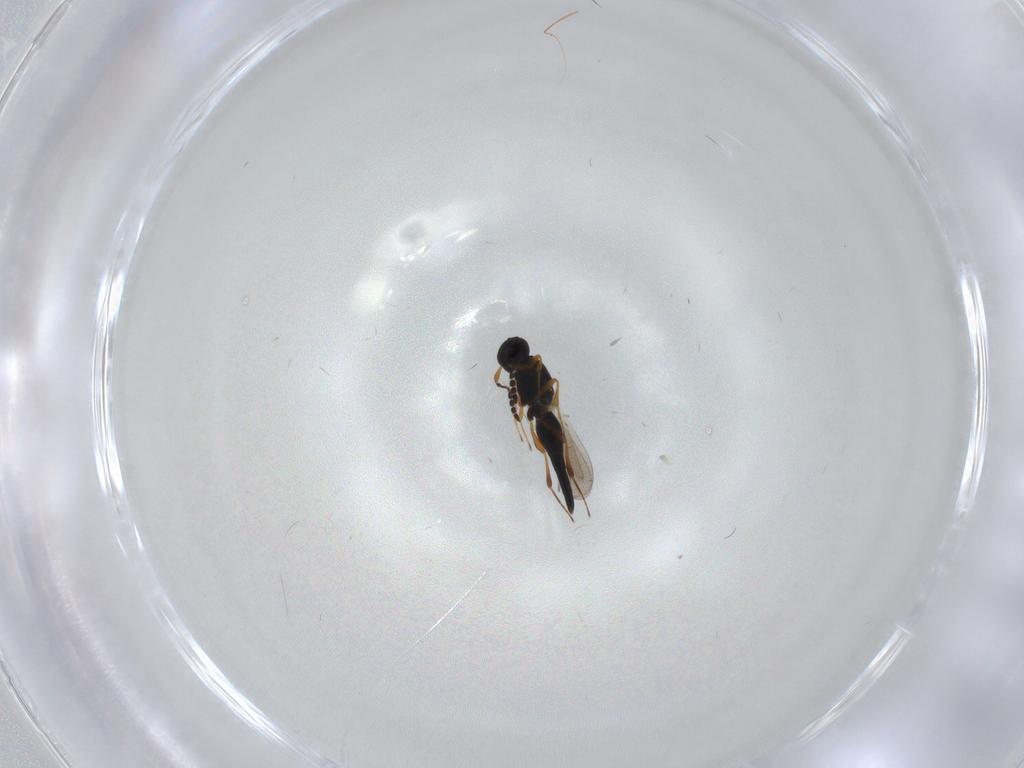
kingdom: Animalia
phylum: Arthropoda
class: Insecta
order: Hymenoptera
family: Platygastridae
